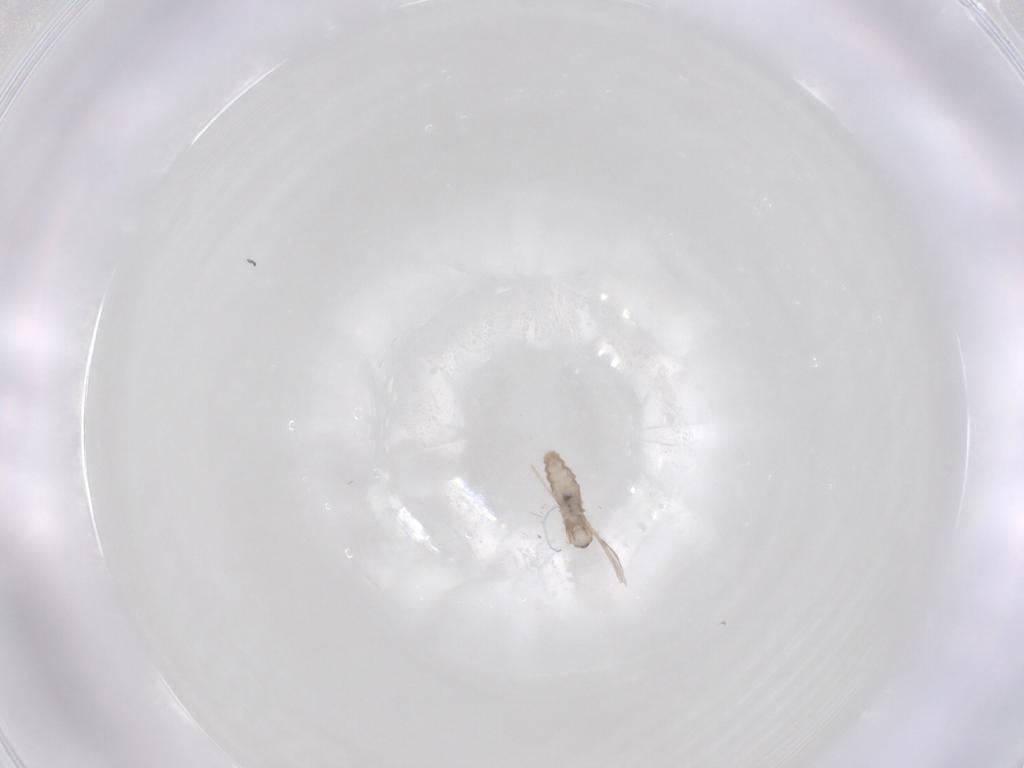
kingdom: Animalia
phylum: Arthropoda
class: Insecta
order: Diptera
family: Cecidomyiidae
